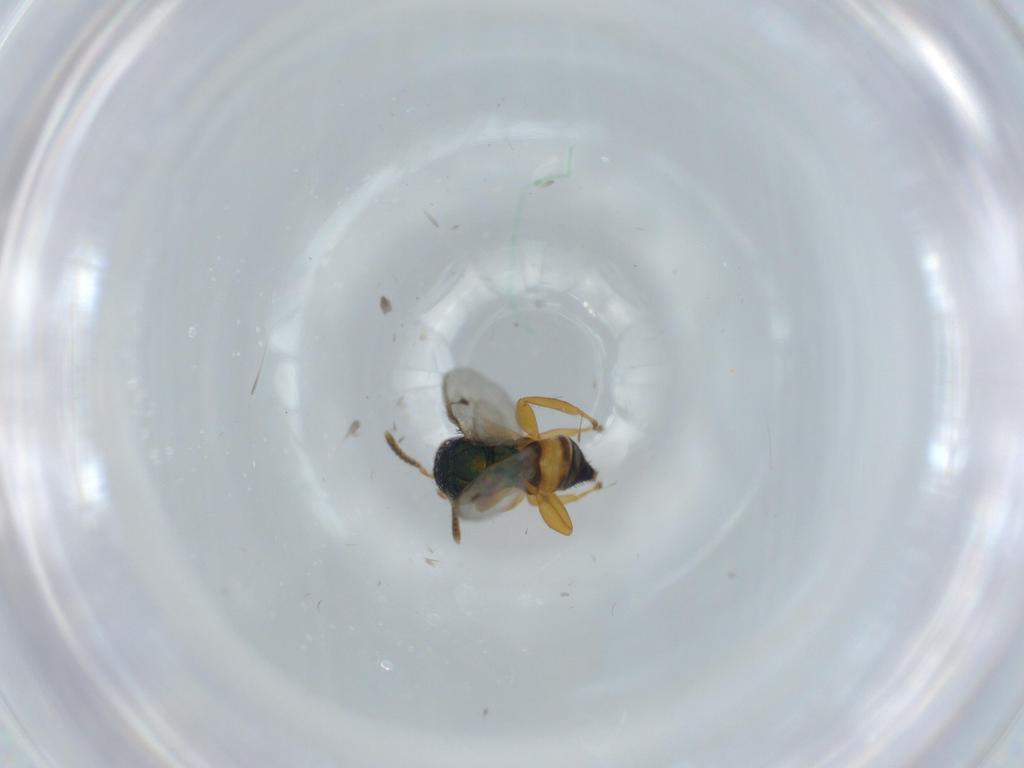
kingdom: Animalia
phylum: Arthropoda
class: Insecta
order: Hymenoptera
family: Pteromalidae
